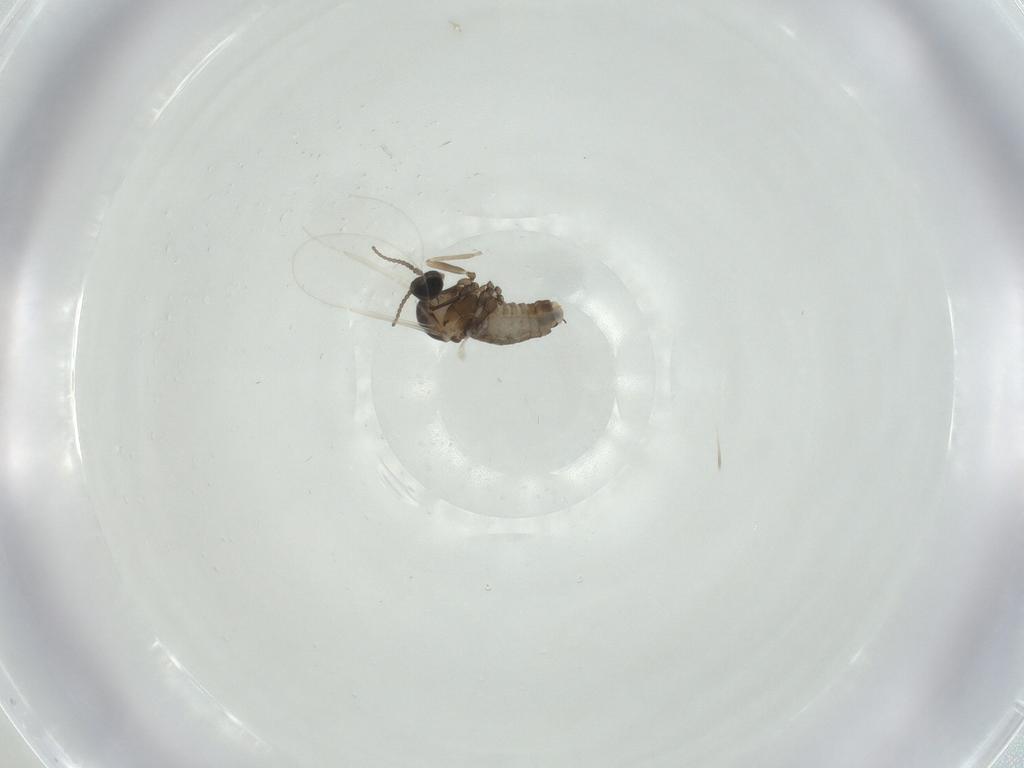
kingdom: Animalia
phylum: Arthropoda
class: Insecta
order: Diptera
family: Cecidomyiidae
